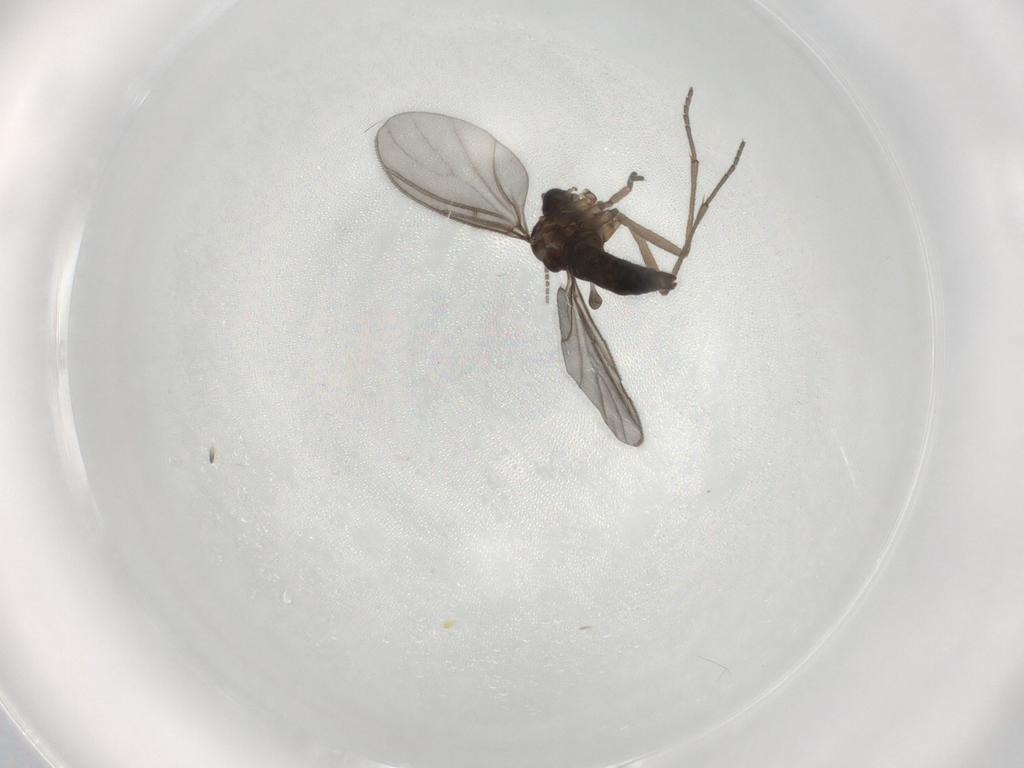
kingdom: Animalia
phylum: Arthropoda
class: Insecta
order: Diptera
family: Sciaridae
